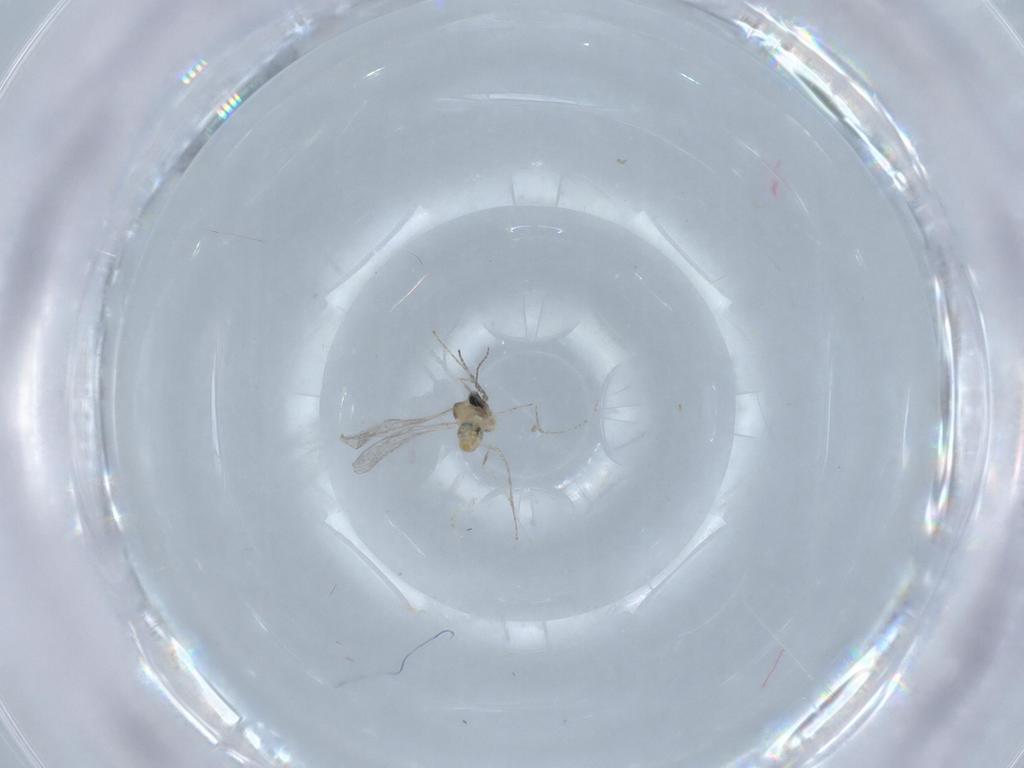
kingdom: Animalia
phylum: Arthropoda
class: Insecta
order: Diptera
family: Cecidomyiidae
